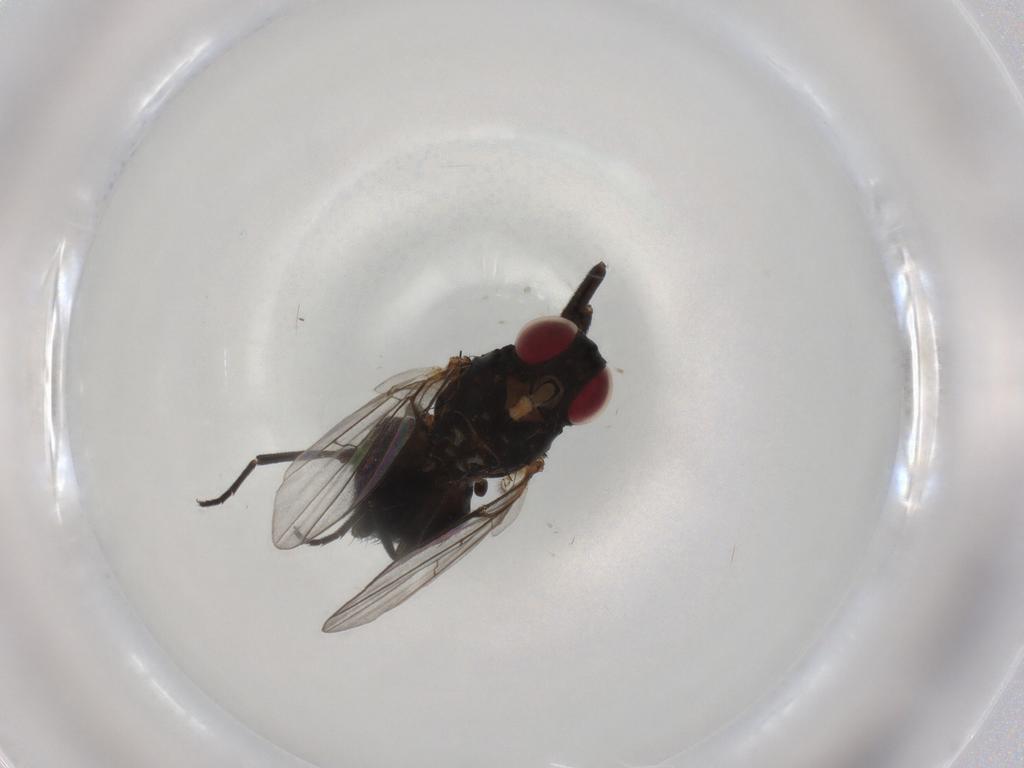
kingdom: Animalia
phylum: Arthropoda
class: Insecta
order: Diptera
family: Agromyzidae
